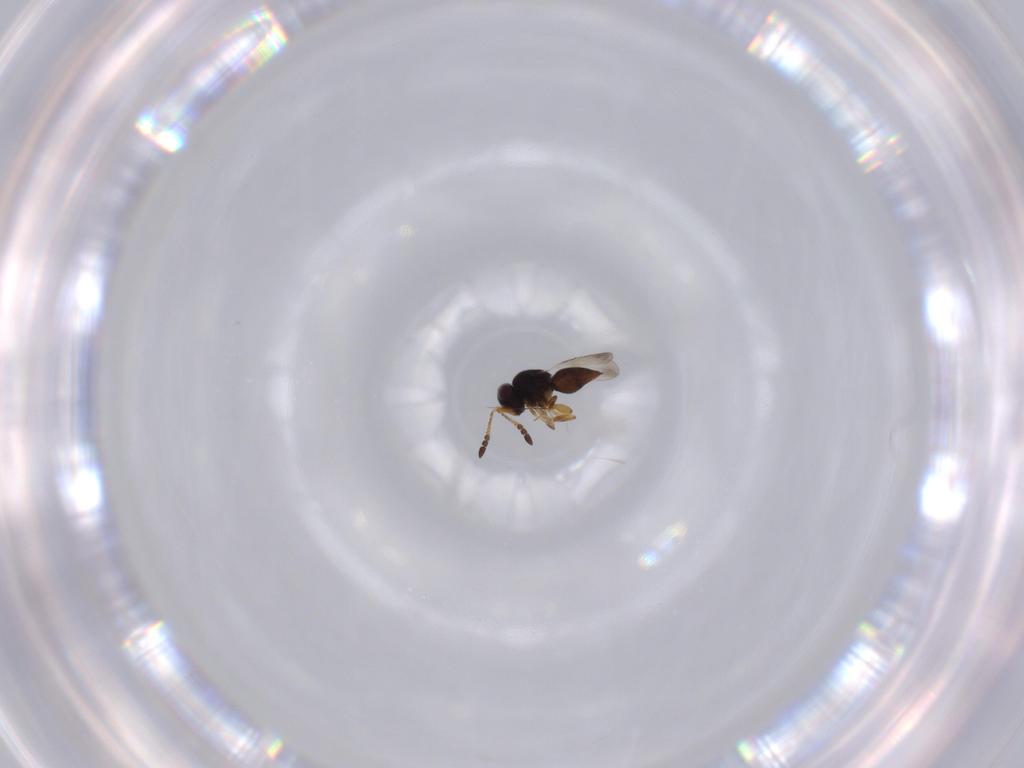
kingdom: Animalia
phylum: Arthropoda
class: Insecta
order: Hymenoptera
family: Ceraphronidae
